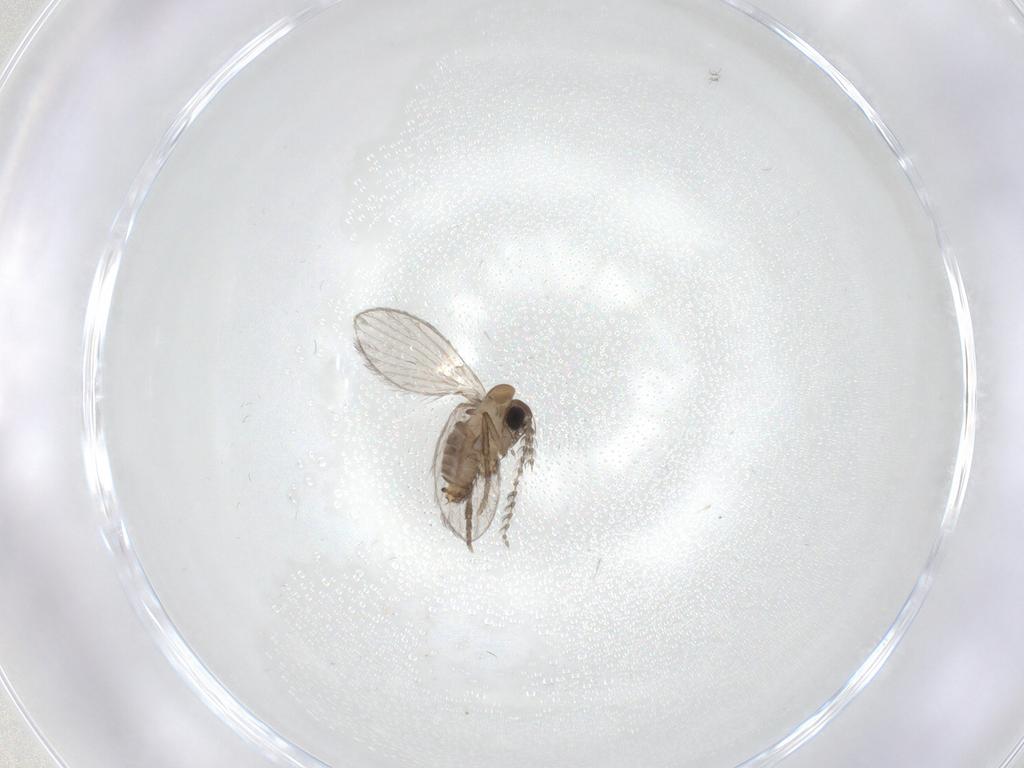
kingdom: Animalia
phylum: Arthropoda
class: Insecta
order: Diptera
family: Psychodidae
